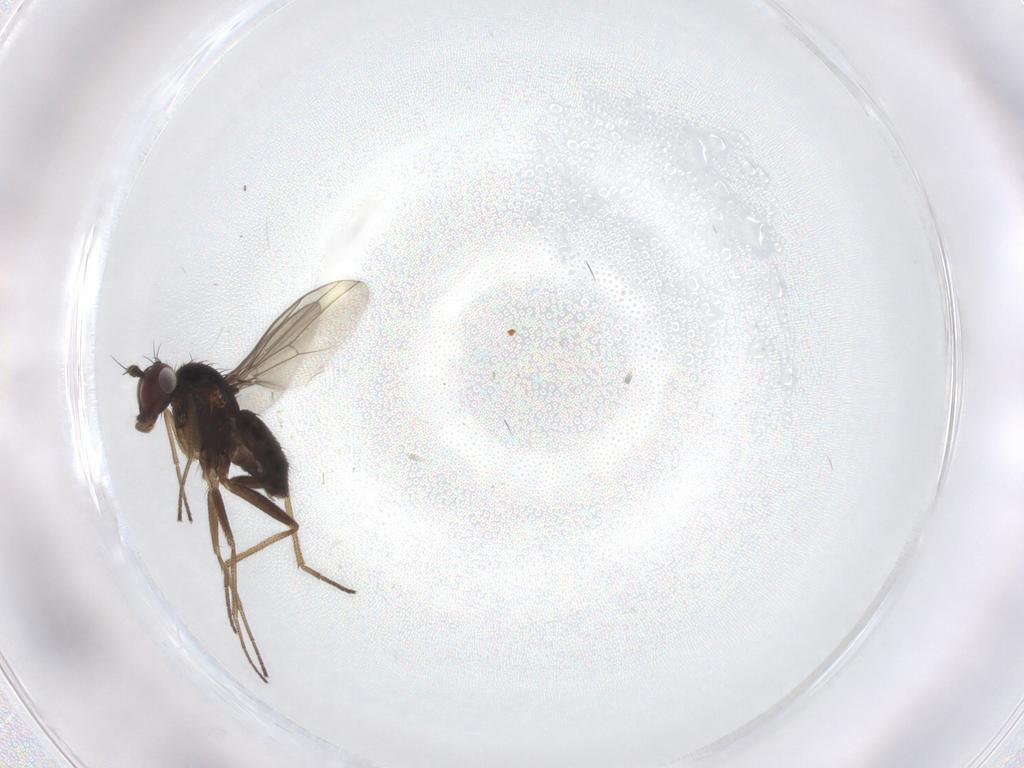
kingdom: Animalia
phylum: Arthropoda
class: Insecta
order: Diptera
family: Dolichopodidae
